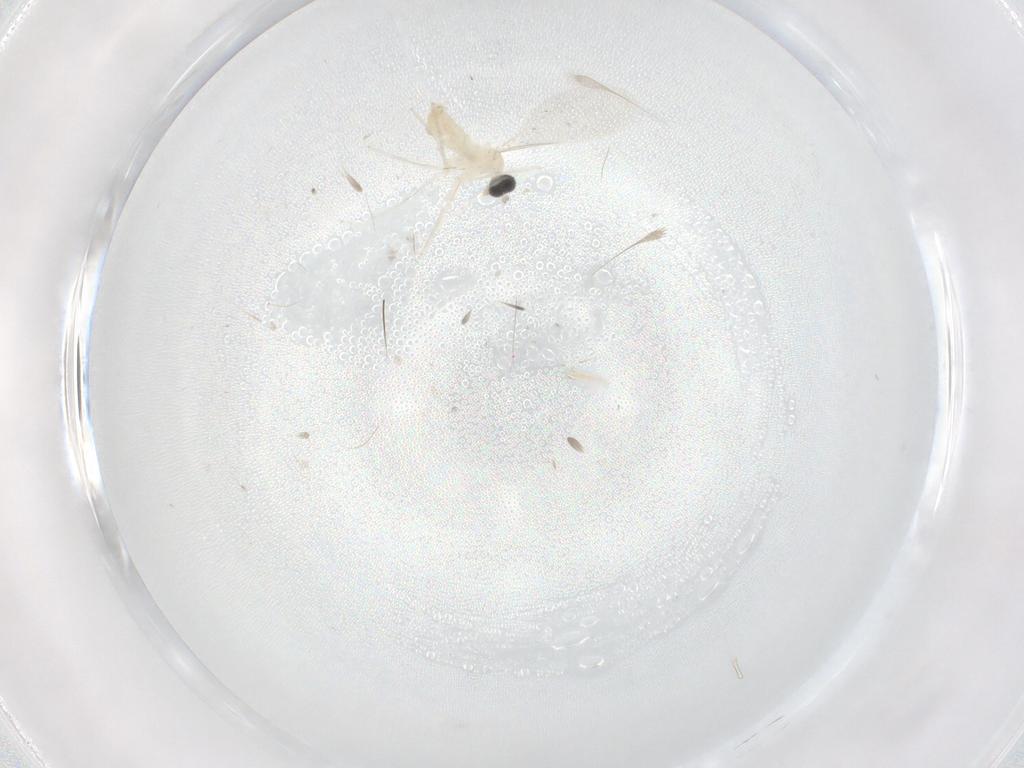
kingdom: Animalia
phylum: Arthropoda
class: Insecta
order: Diptera
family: Cecidomyiidae
